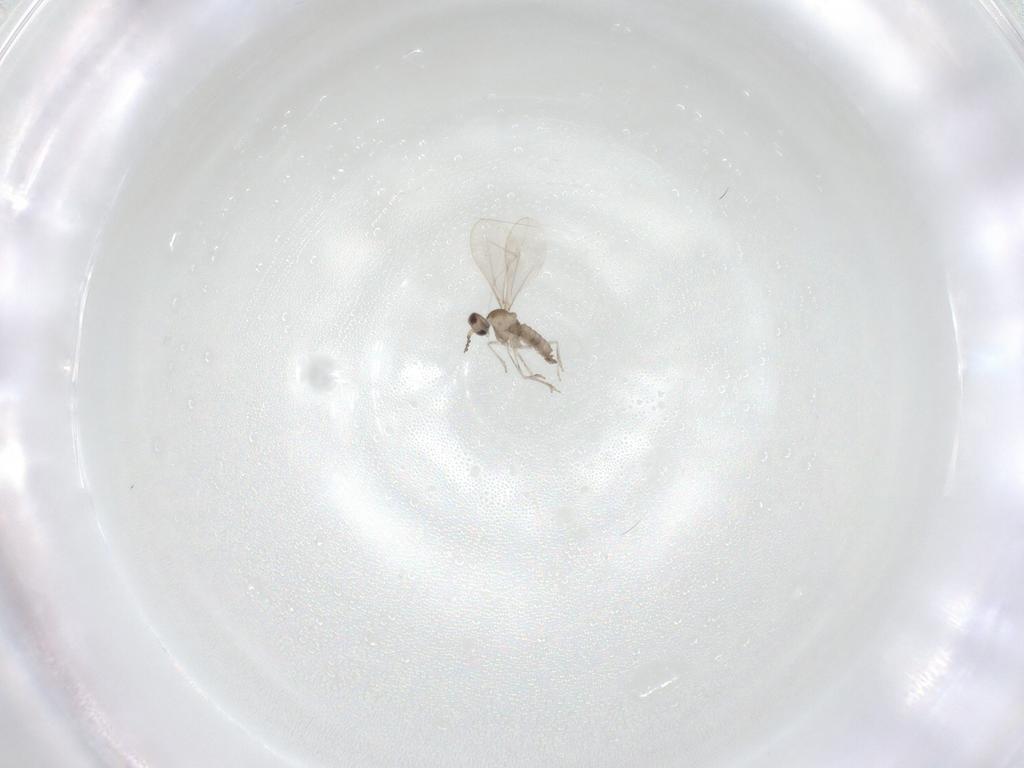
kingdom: Animalia
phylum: Arthropoda
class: Insecta
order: Diptera
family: Cecidomyiidae
